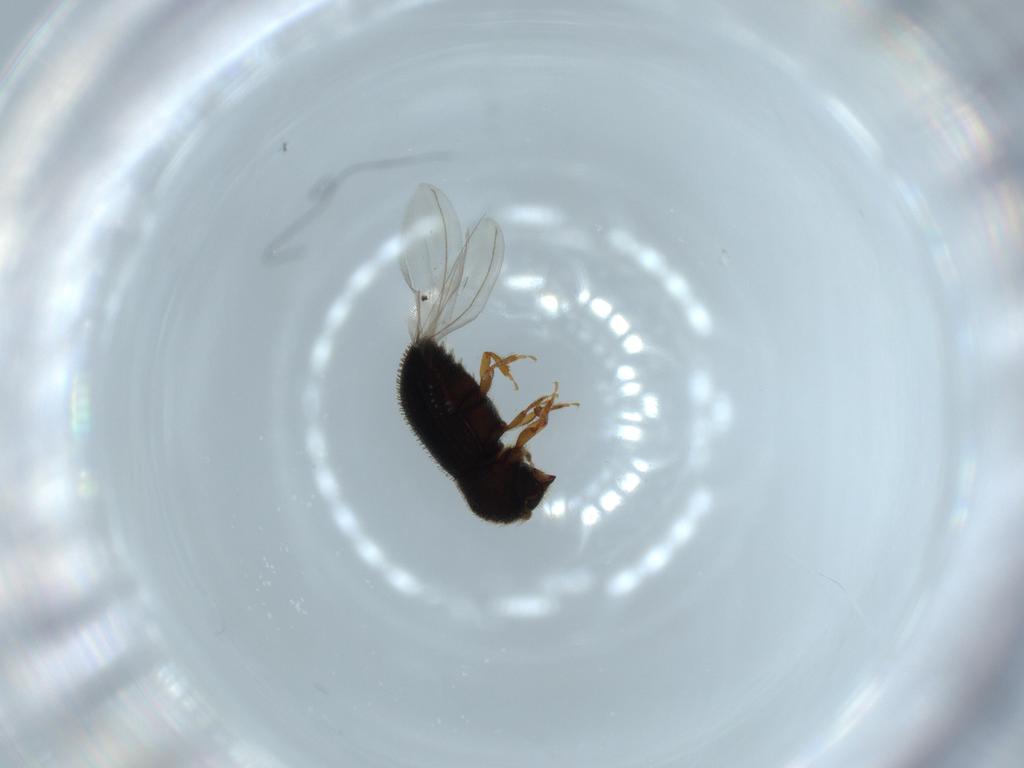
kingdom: Animalia
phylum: Arthropoda
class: Insecta
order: Coleoptera
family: Curculionidae
